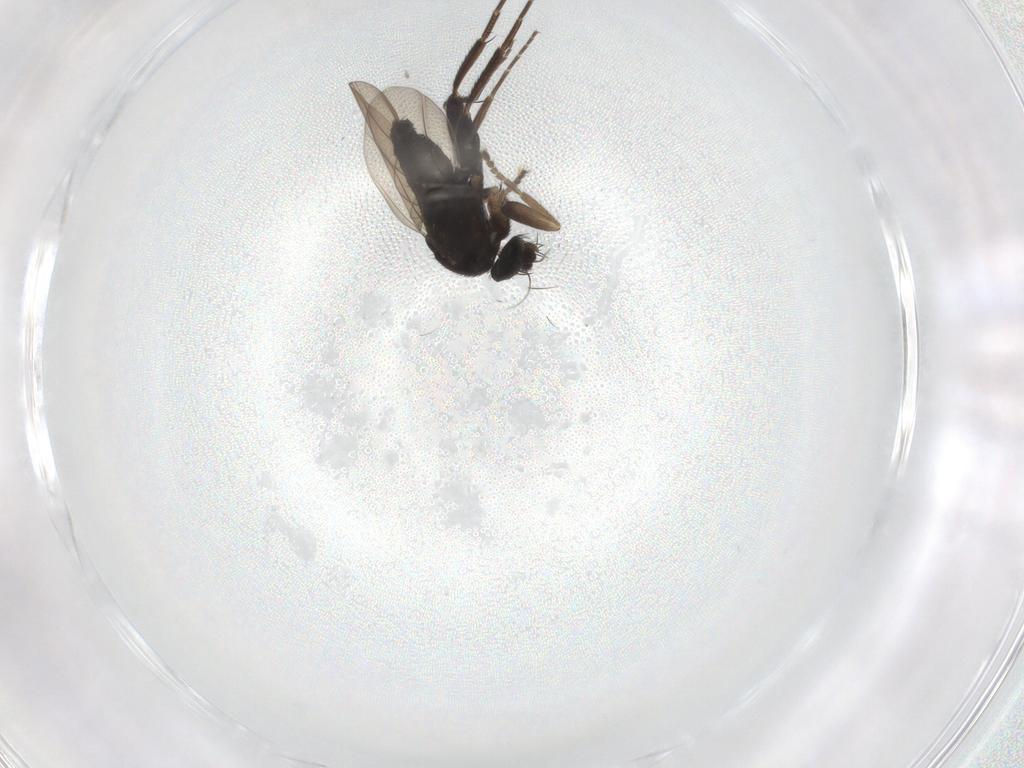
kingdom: Animalia
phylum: Arthropoda
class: Insecta
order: Diptera
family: Phoridae
